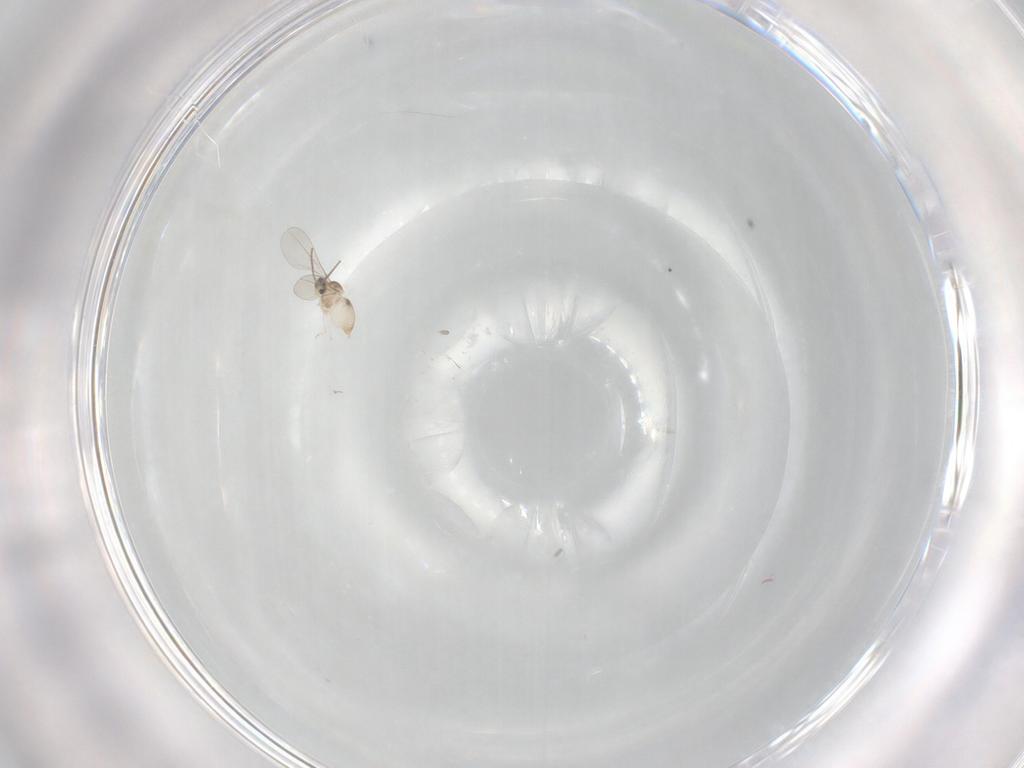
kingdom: Animalia
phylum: Arthropoda
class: Insecta
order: Diptera
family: Cecidomyiidae
